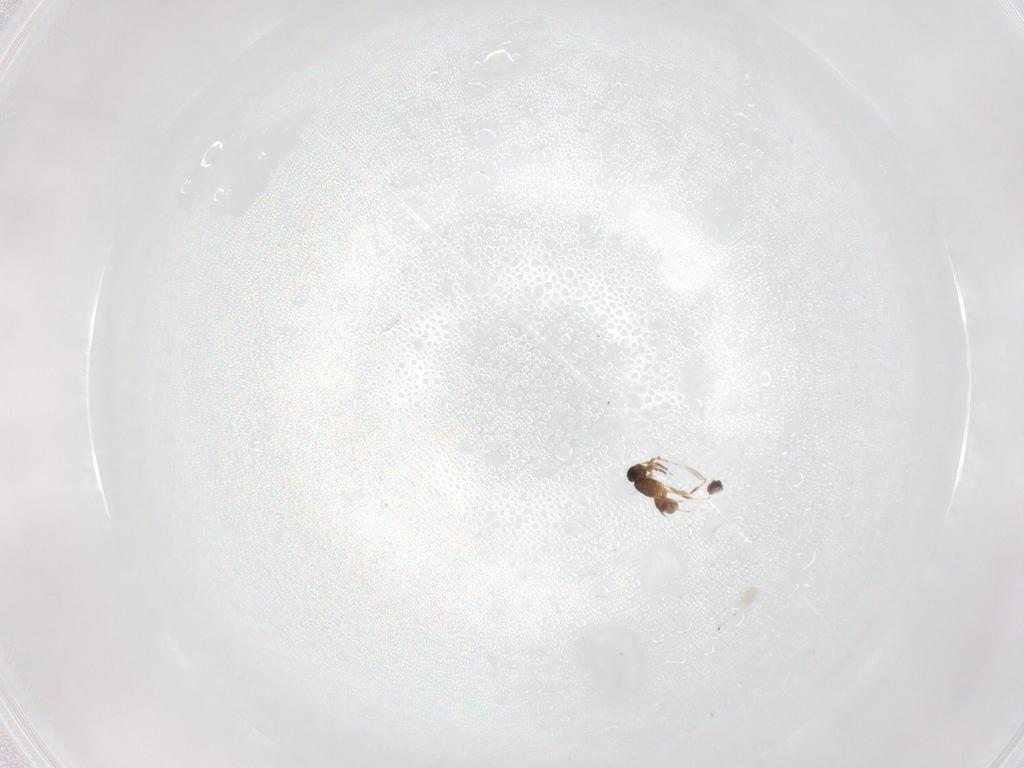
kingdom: Animalia
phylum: Arthropoda
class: Insecta
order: Hymenoptera
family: Platygastridae
